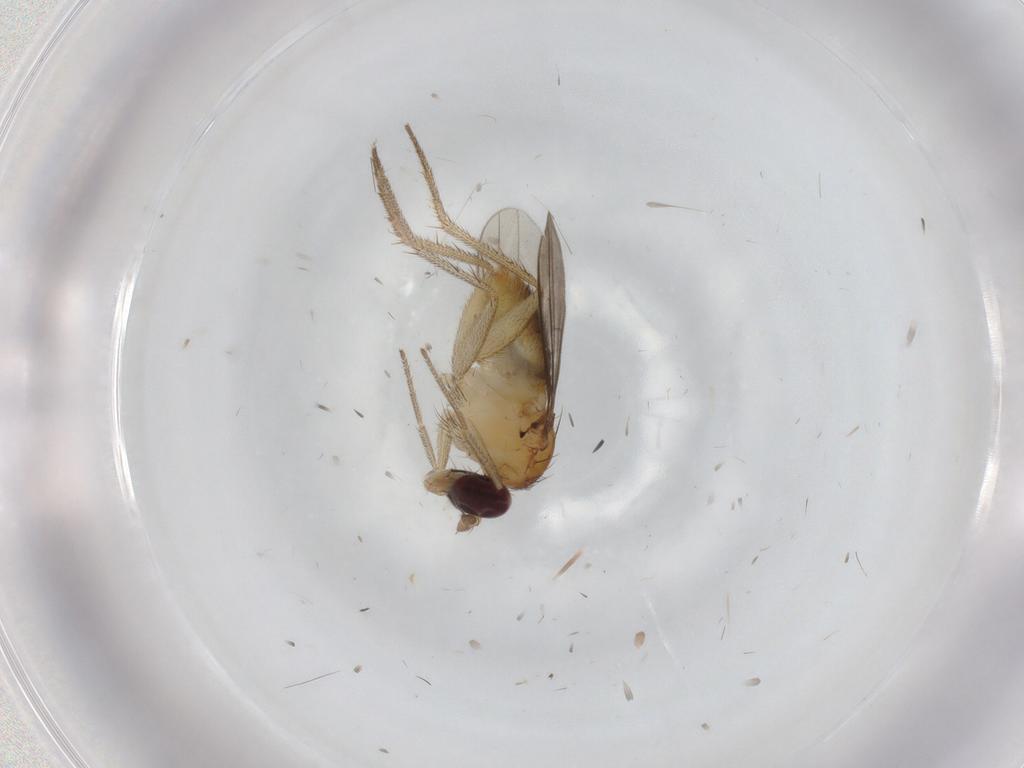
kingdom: Animalia
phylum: Arthropoda
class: Insecta
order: Diptera
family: Dolichopodidae
